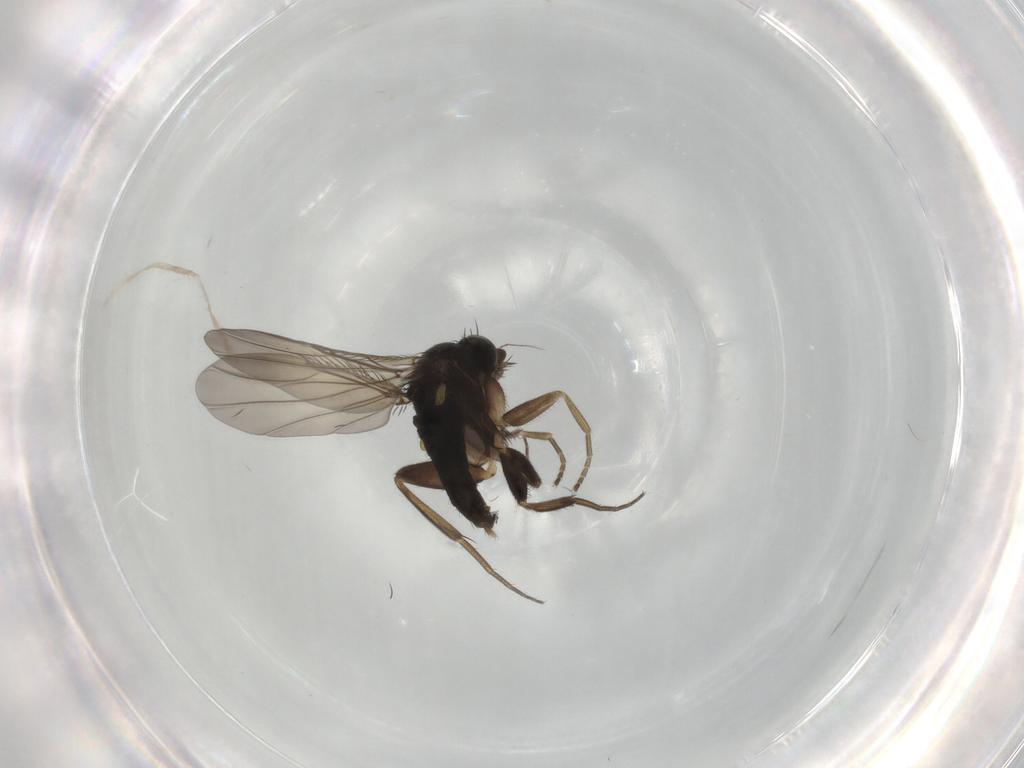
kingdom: Animalia
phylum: Arthropoda
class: Insecta
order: Diptera
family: Phoridae
